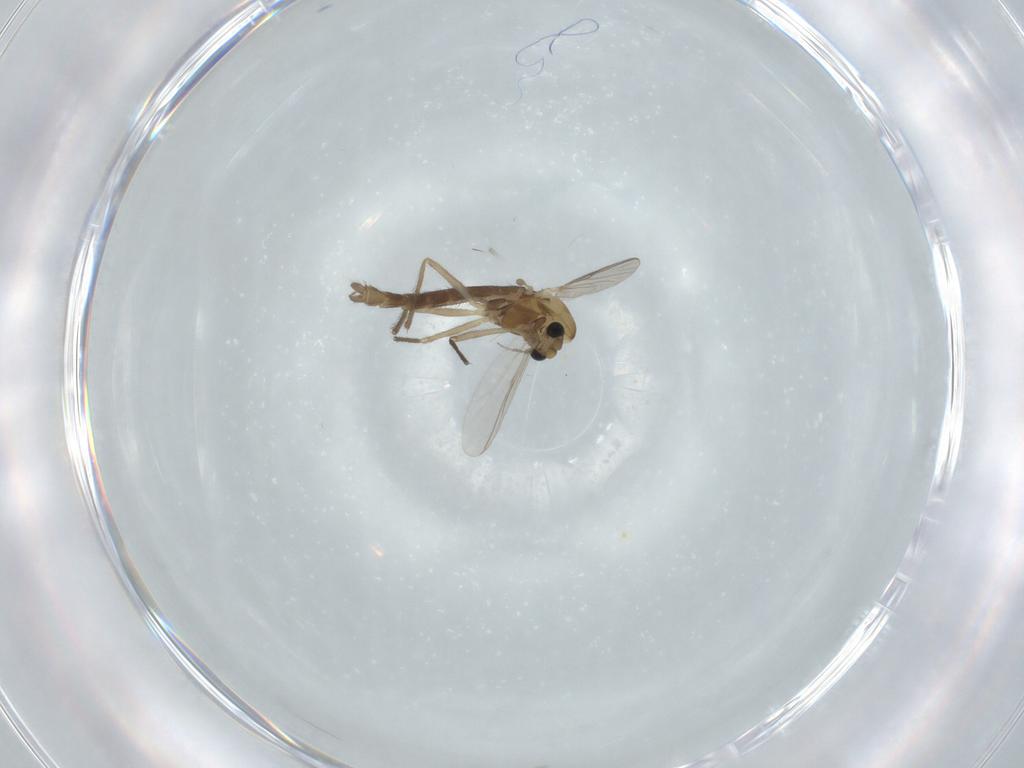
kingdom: Animalia
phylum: Arthropoda
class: Insecta
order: Diptera
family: Chironomidae
